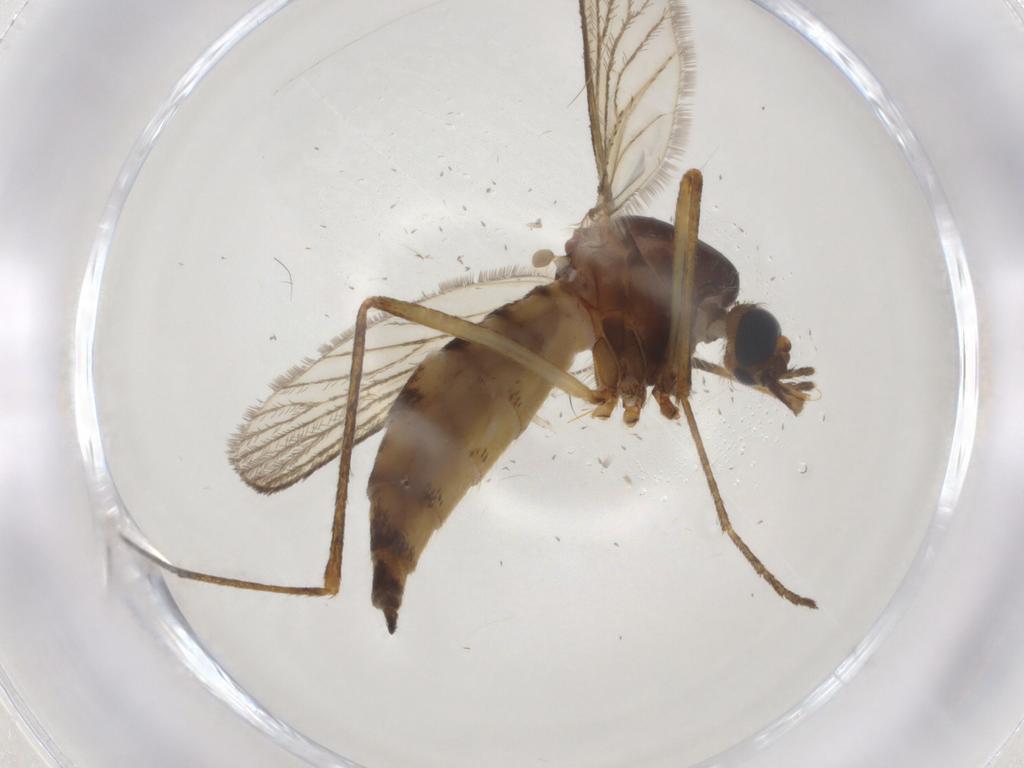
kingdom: Animalia
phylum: Arthropoda
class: Insecta
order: Diptera
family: Culicidae
